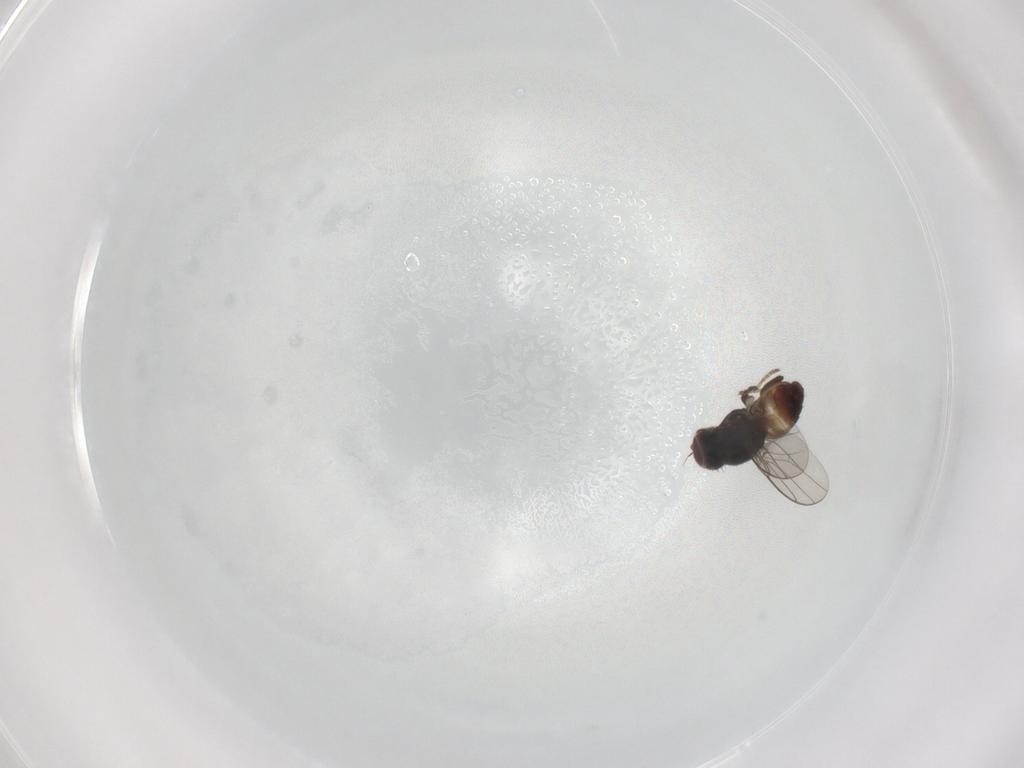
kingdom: Animalia
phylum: Arthropoda
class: Insecta
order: Diptera
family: Chloropidae
